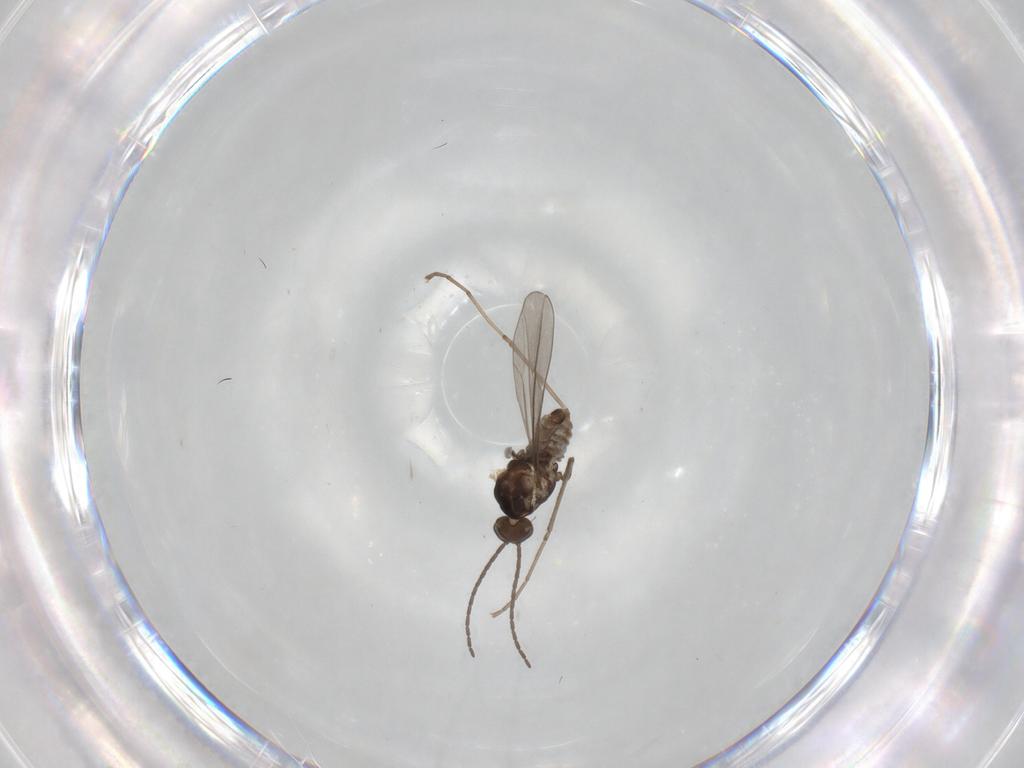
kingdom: Animalia
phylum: Arthropoda
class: Insecta
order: Diptera
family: Cecidomyiidae
